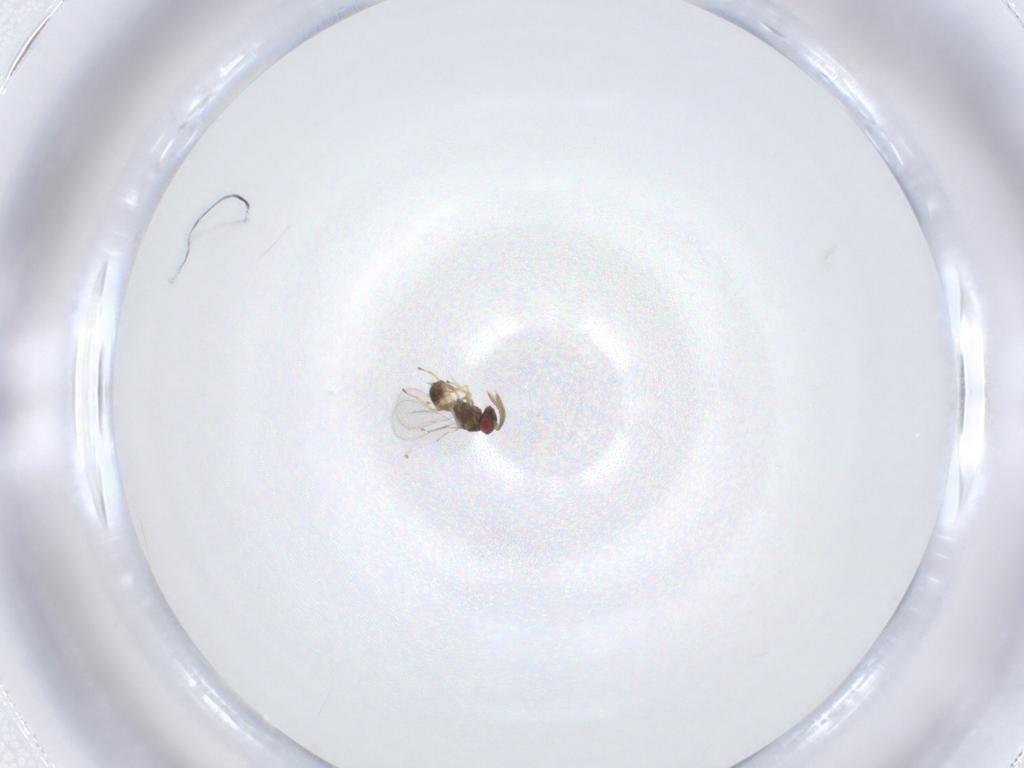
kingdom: Animalia
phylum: Arthropoda
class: Insecta
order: Hymenoptera
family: Eulophidae
